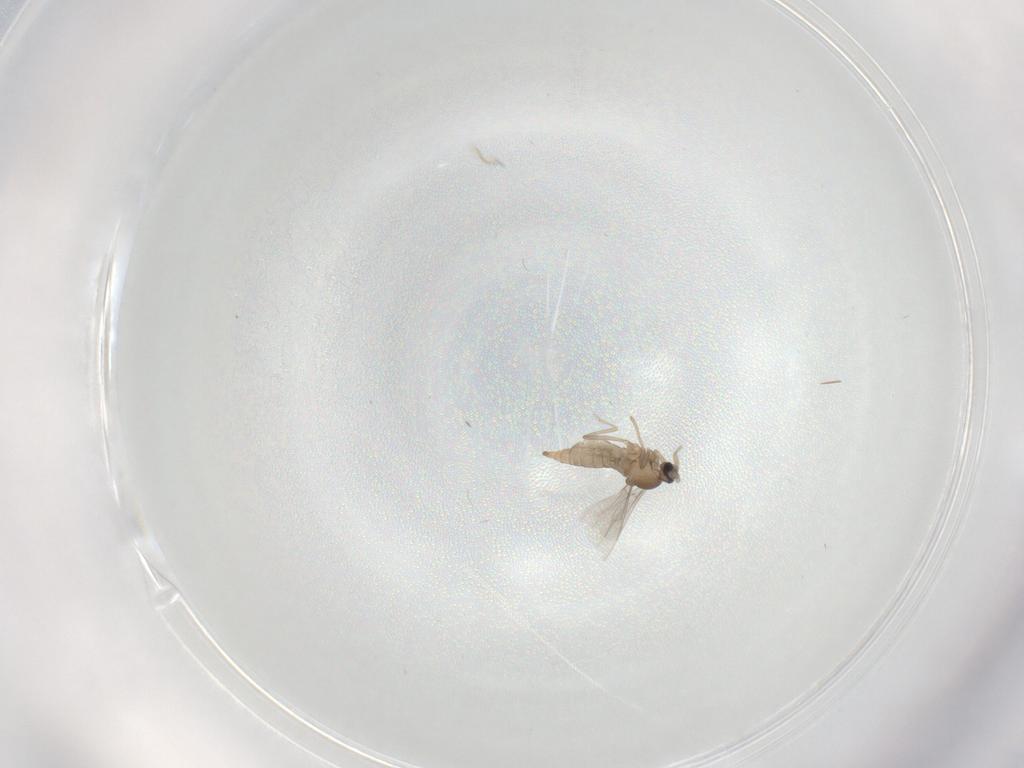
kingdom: Animalia
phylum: Arthropoda
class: Insecta
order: Diptera
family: Cecidomyiidae
